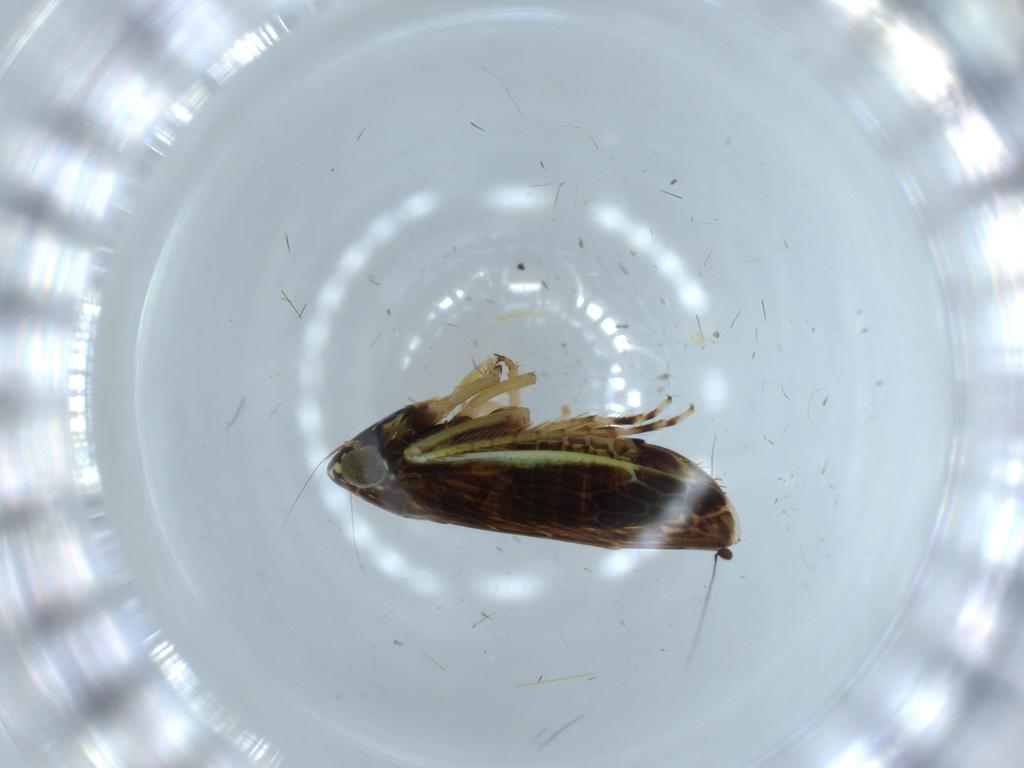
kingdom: Animalia
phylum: Arthropoda
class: Insecta
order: Hemiptera
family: Cicadellidae
